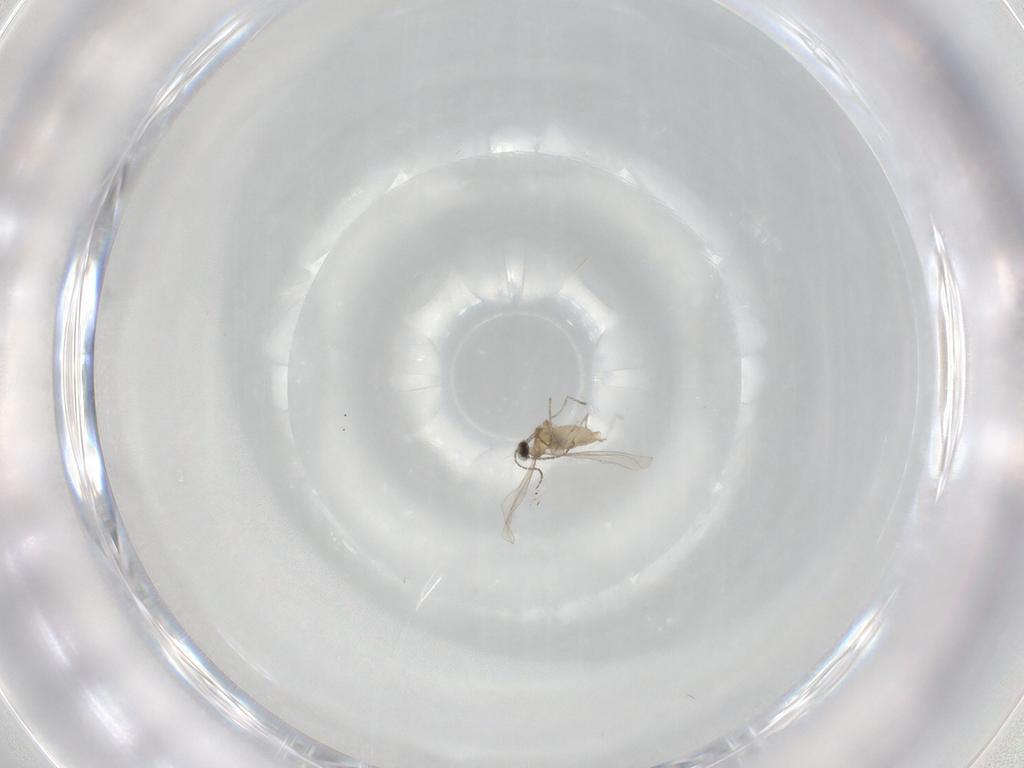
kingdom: Animalia
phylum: Arthropoda
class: Insecta
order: Diptera
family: Cecidomyiidae
